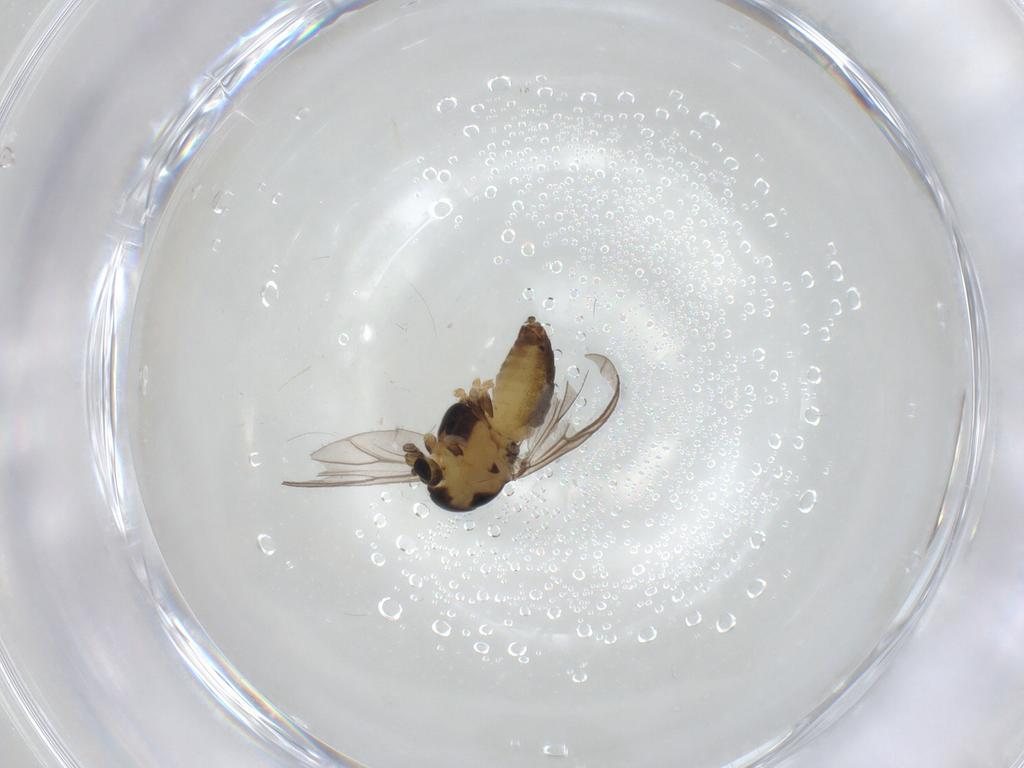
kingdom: Animalia
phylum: Arthropoda
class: Insecta
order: Diptera
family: Chironomidae
